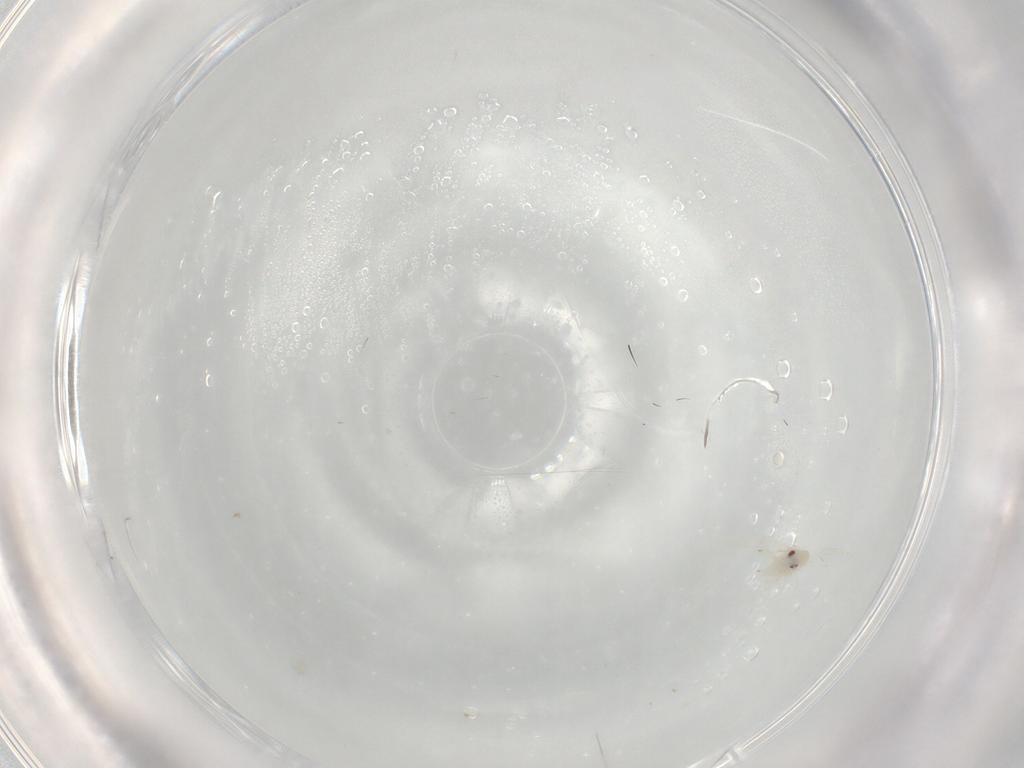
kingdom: Animalia
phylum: Arthropoda
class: Insecta
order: Hemiptera
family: Aleyrodidae
